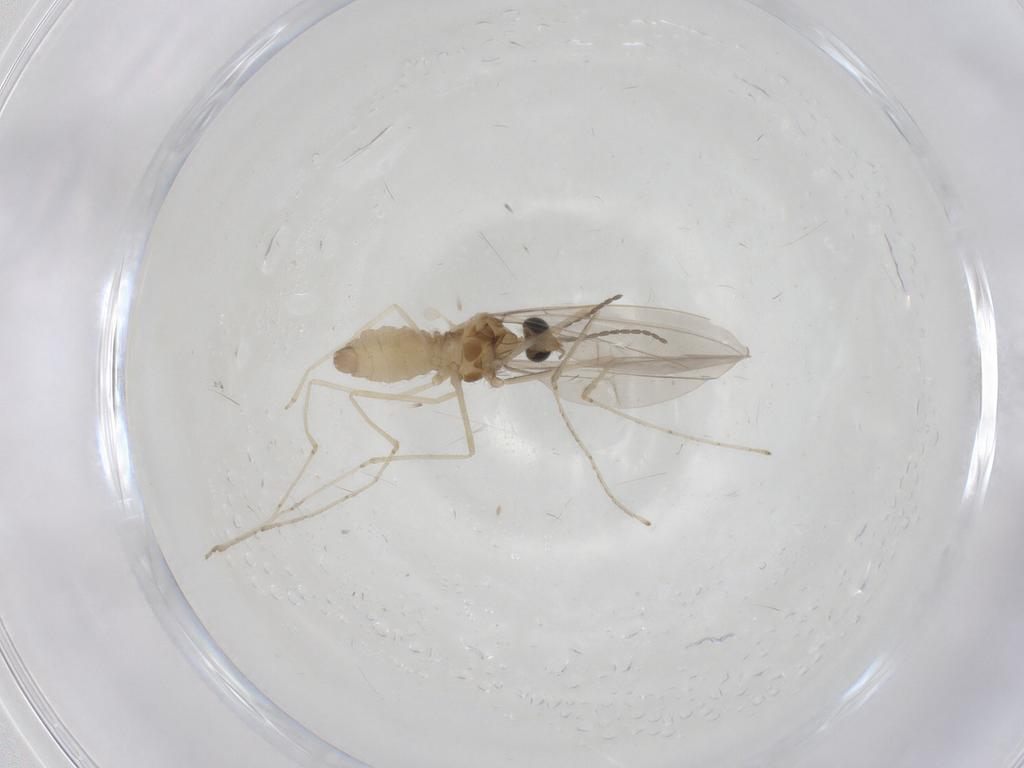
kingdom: Animalia
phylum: Arthropoda
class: Insecta
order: Diptera
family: Cecidomyiidae
